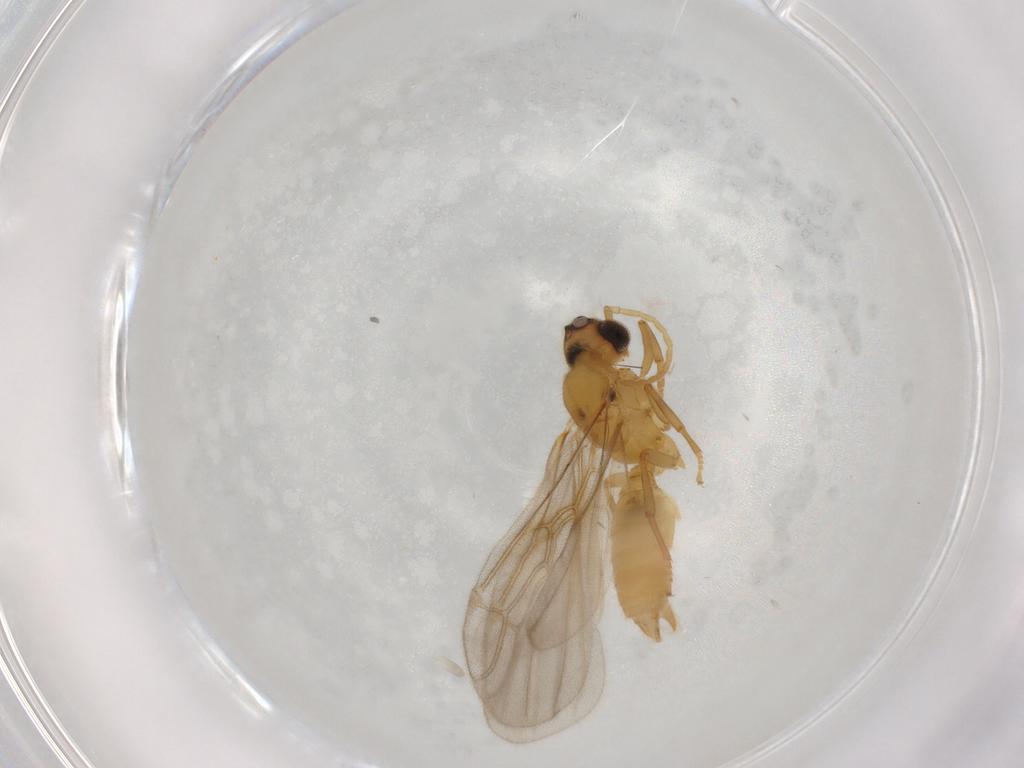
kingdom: Animalia
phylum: Arthropoda
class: Insecta
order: Hymenoptera
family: Formicidae
